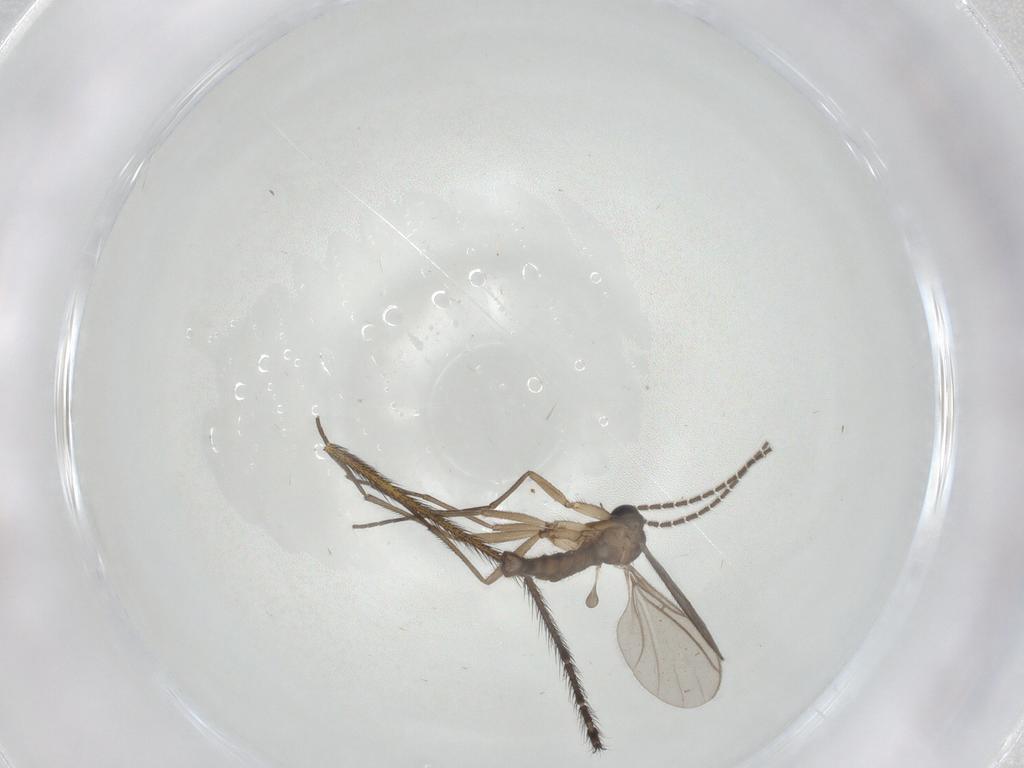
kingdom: Animalia
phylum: Arthropoda
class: Insecta
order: Diptera
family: Sciaridae
